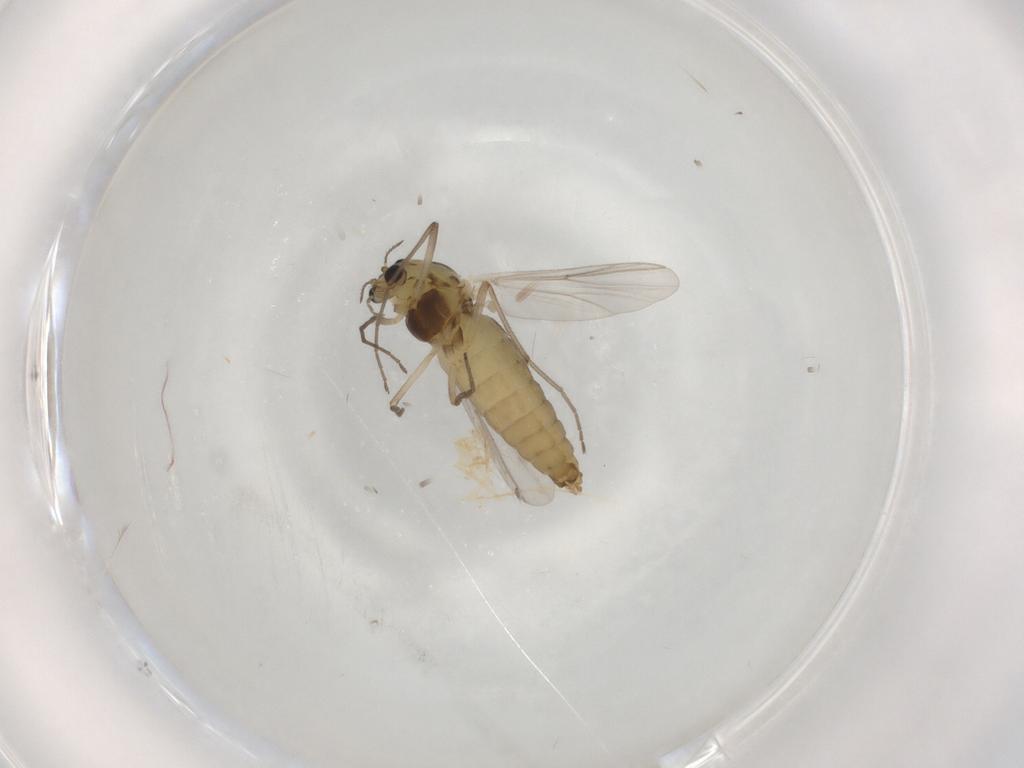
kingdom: Animalia
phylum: Arthropoda
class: Insecta
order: Diptera
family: Chironomidae
